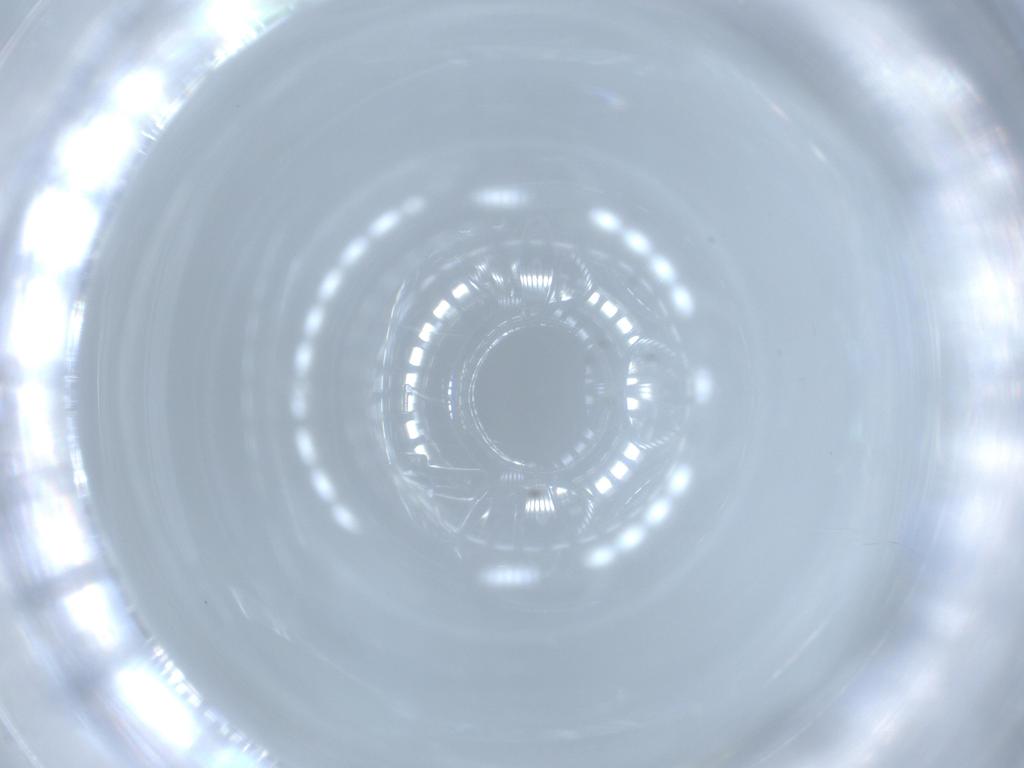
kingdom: Animalia
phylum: Arthropoda
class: Insecta
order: Coleoptera
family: Chrysomelidae
